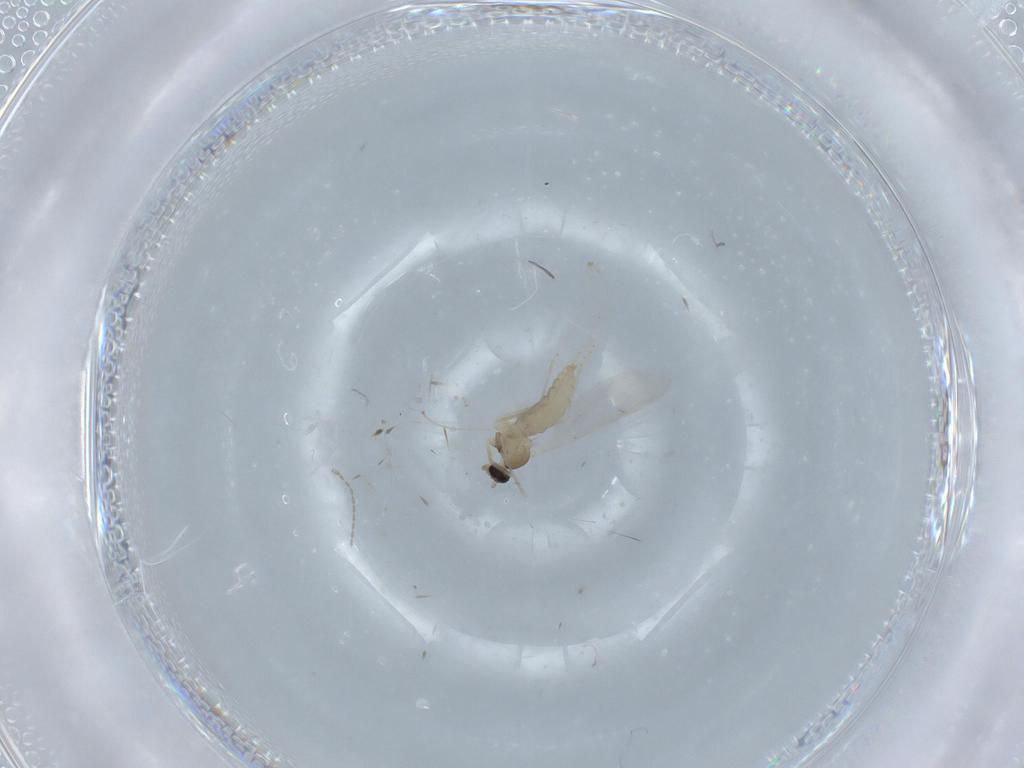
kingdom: Animalia
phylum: Arthropoda
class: Insecta
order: Diptera
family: Cecidomyiidae
